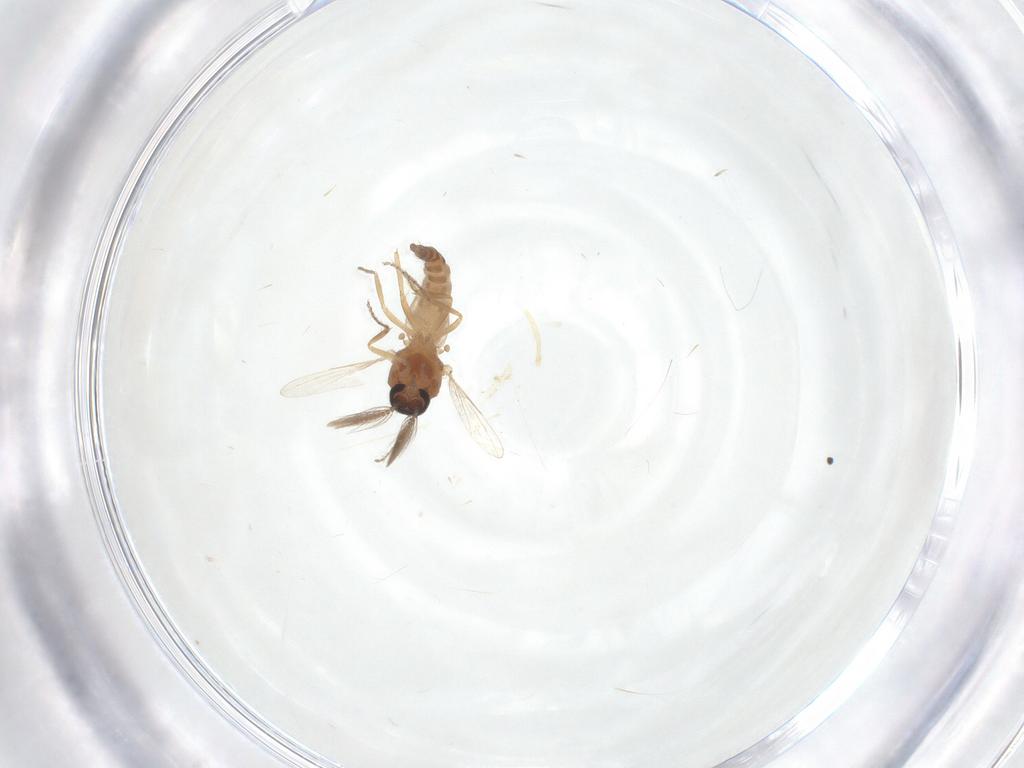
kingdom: Animalia
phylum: Arthropoda
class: Insecta
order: Diptera
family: Ceratopogonidae
